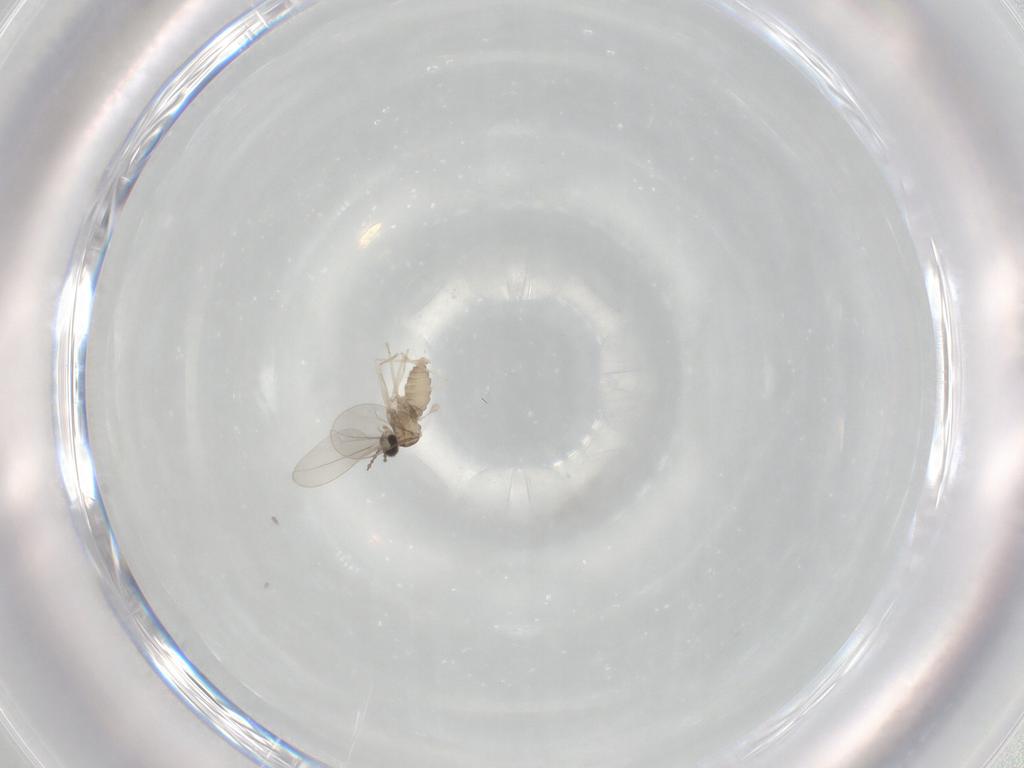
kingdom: Animalia
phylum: Arthropoda
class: Insecta
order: Diptera
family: Cecidomyiidae
